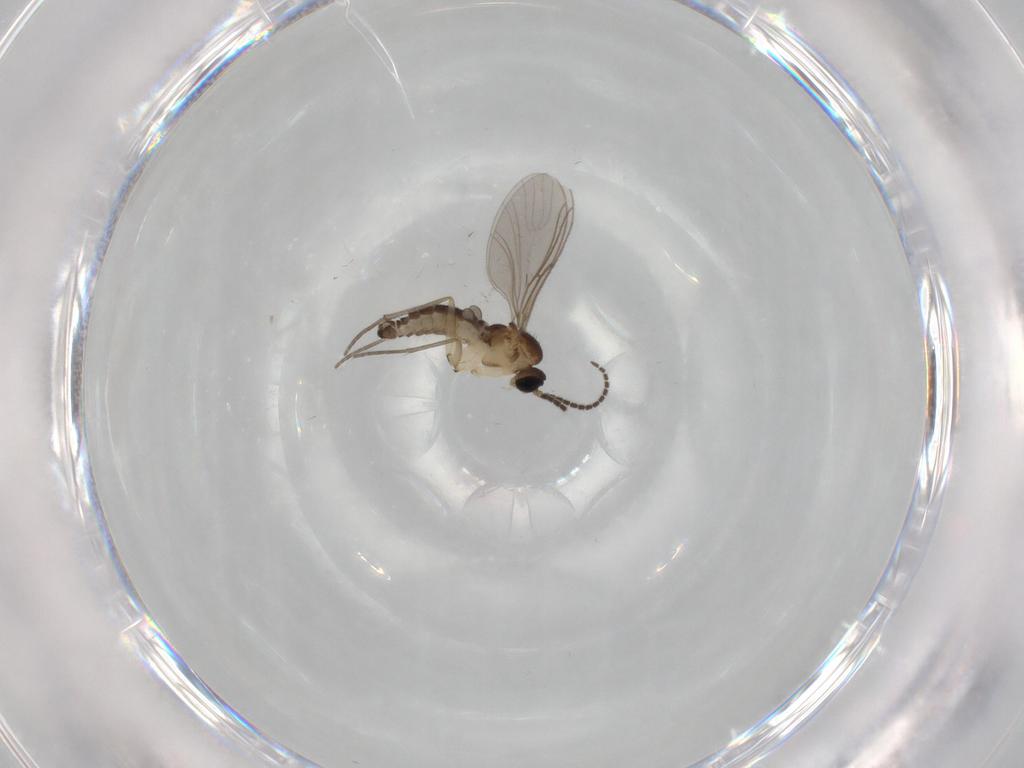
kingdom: Animalia
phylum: Arthropoda
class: Insecta
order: Diptera
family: Sciaridae
